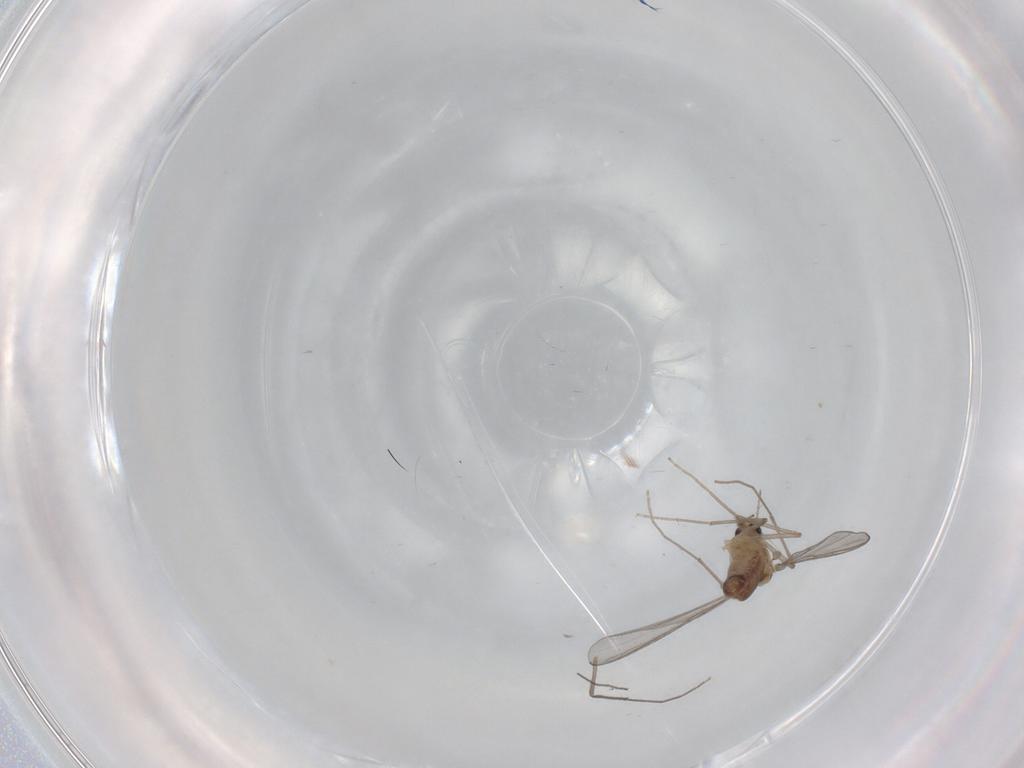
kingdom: Animalia
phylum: Arthropoda
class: Insecta
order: Diptera
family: Chironomidae
